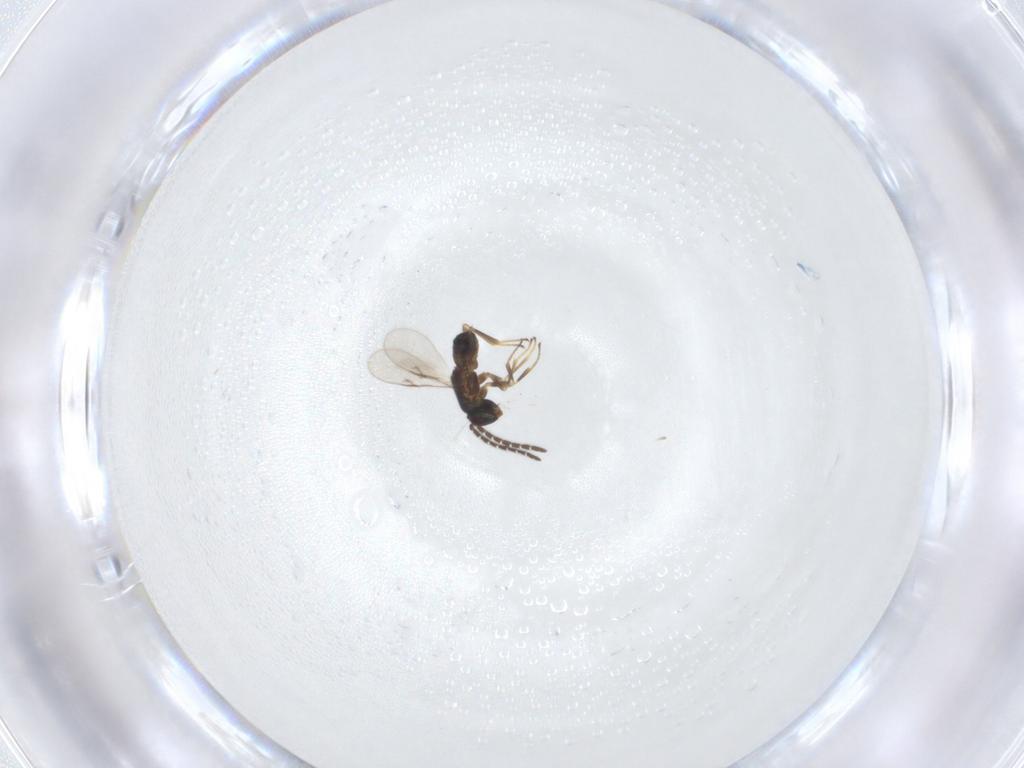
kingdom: Animalia
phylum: Arthropoda
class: Insecta
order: Hymenoptera
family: Encyrtidae
